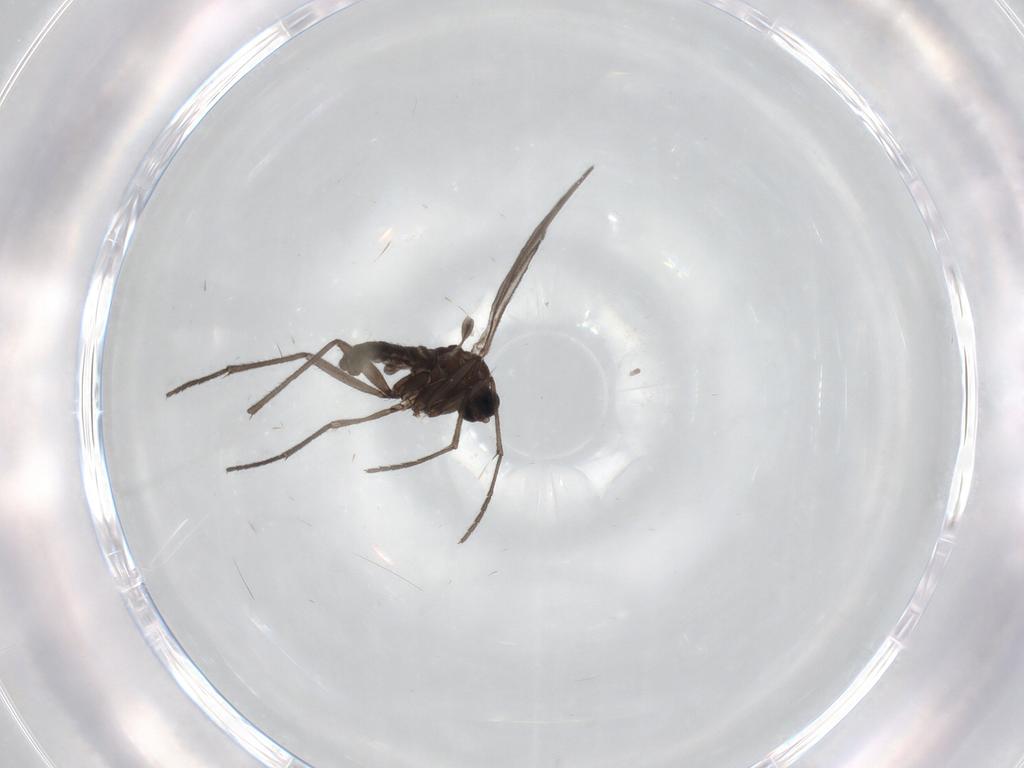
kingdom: Animalia
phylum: Arthropoda
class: Insecta
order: Diptera
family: Sciaridae
